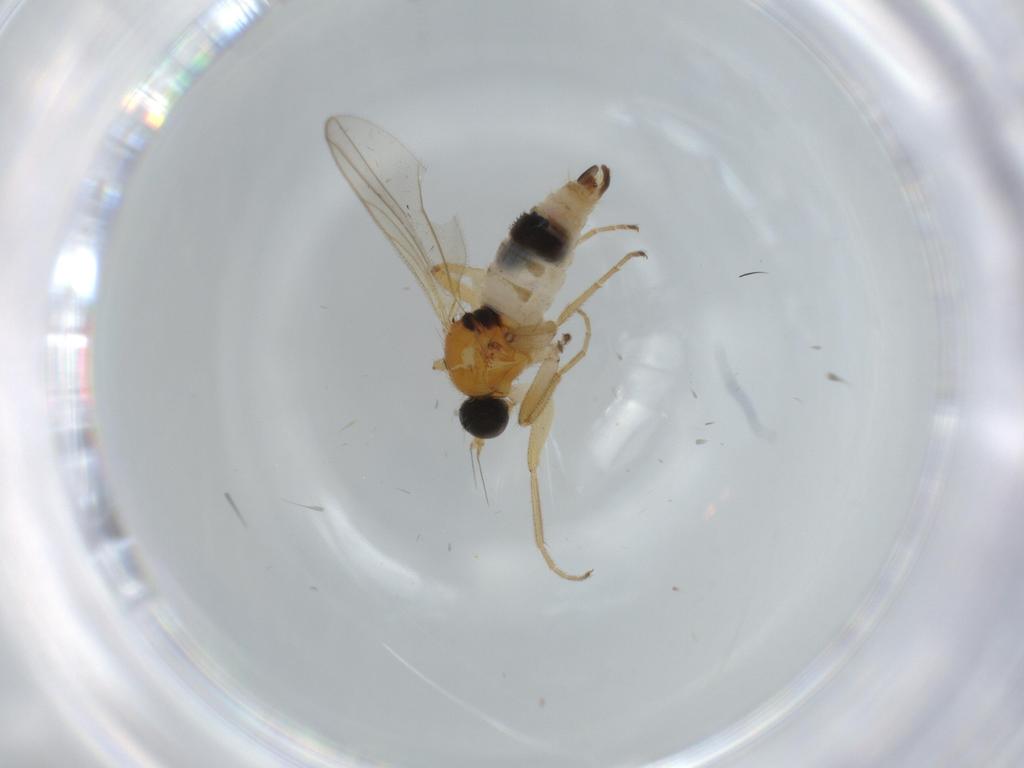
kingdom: Animalia
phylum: Arthropoda
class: Insecta
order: Diptera
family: Hybotidae
